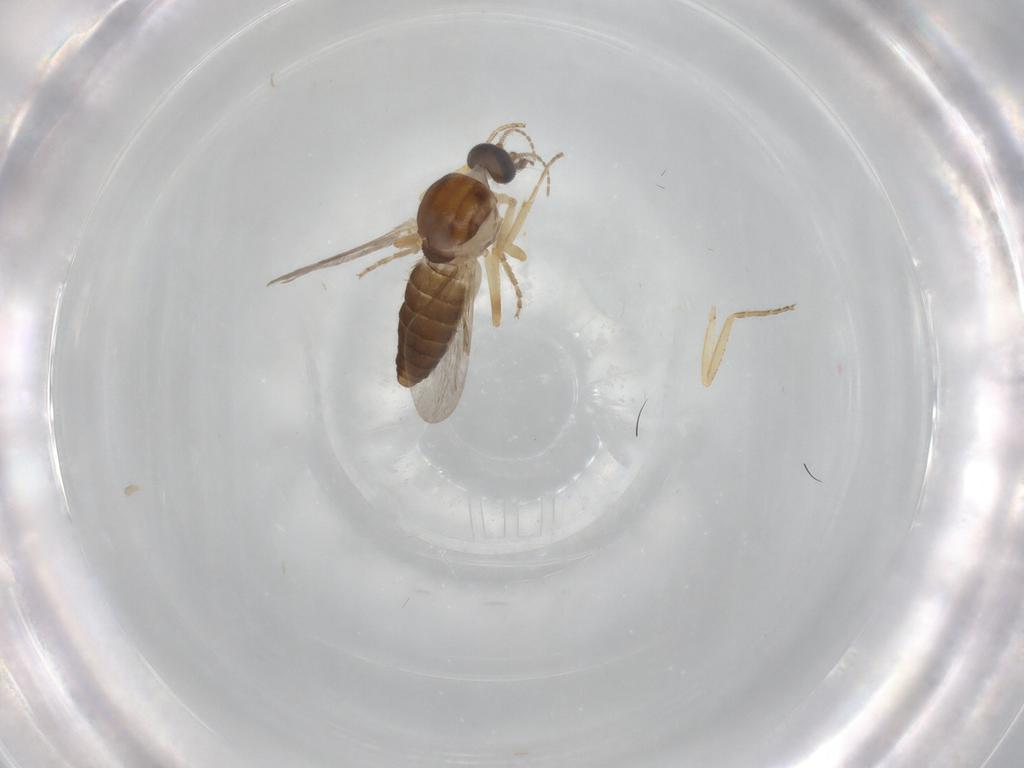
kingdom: Animalia
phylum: Arthropoda
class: Insecta
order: Diptera
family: Ceratopogonidae
